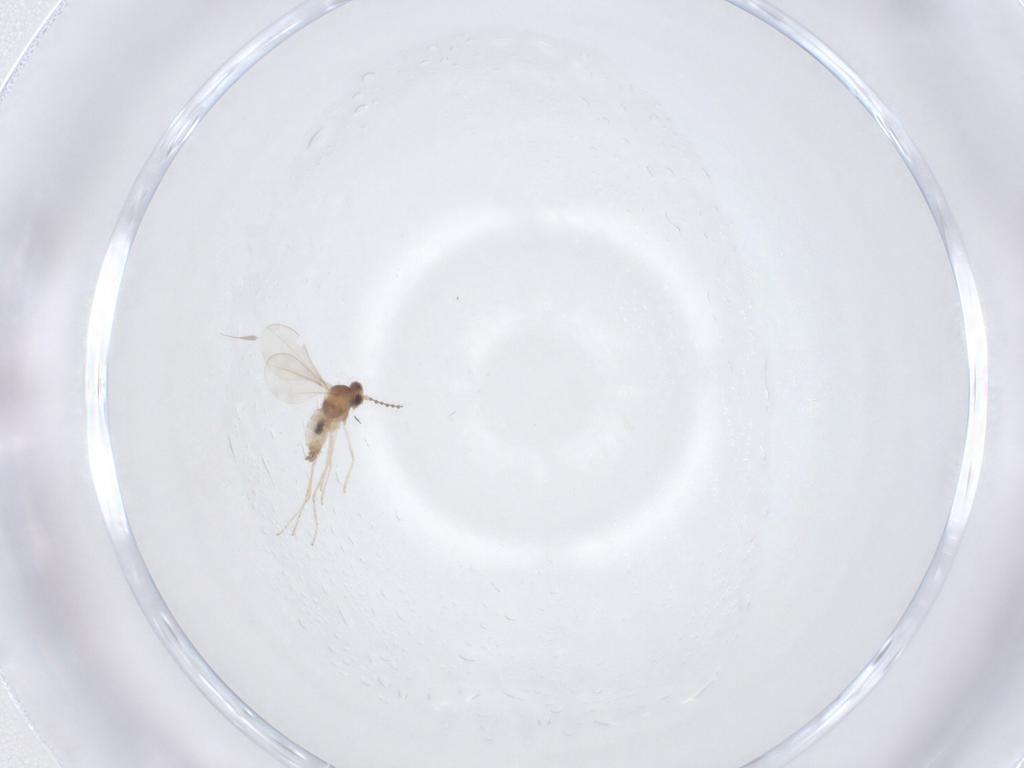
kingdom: Animalia
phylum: Arthropoda
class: Insecta
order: Diptera
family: Cecidomyiidae
